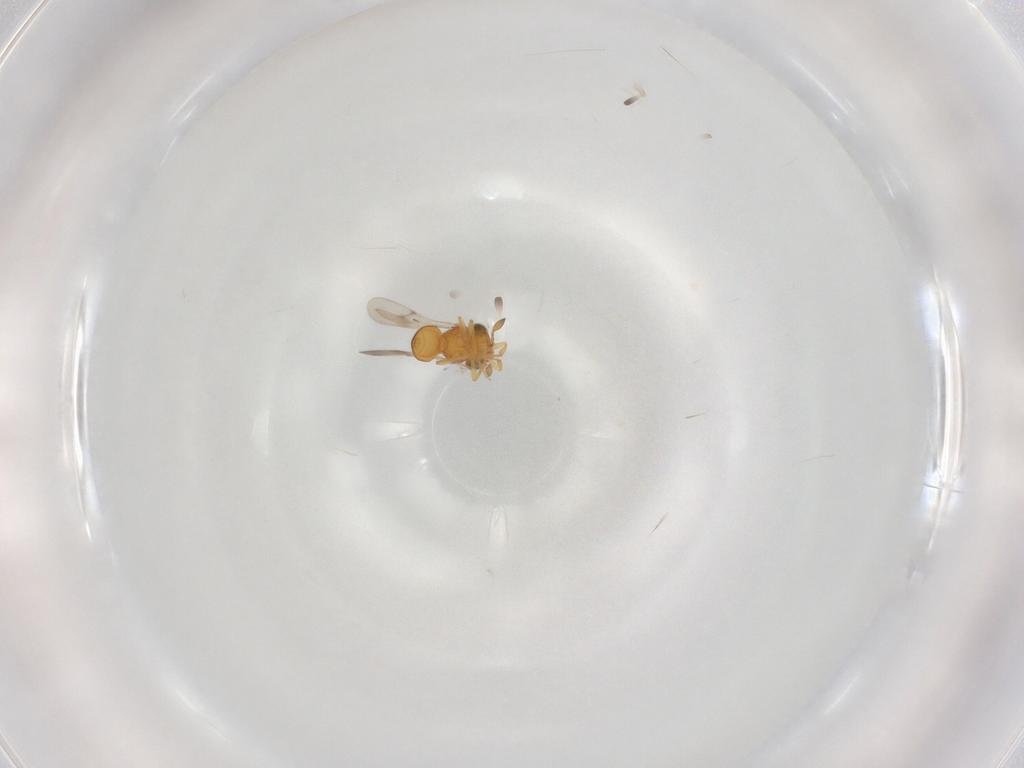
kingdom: Animalia
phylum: Arthropoda
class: Insecta
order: Hymenoptera
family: Scelionidae
